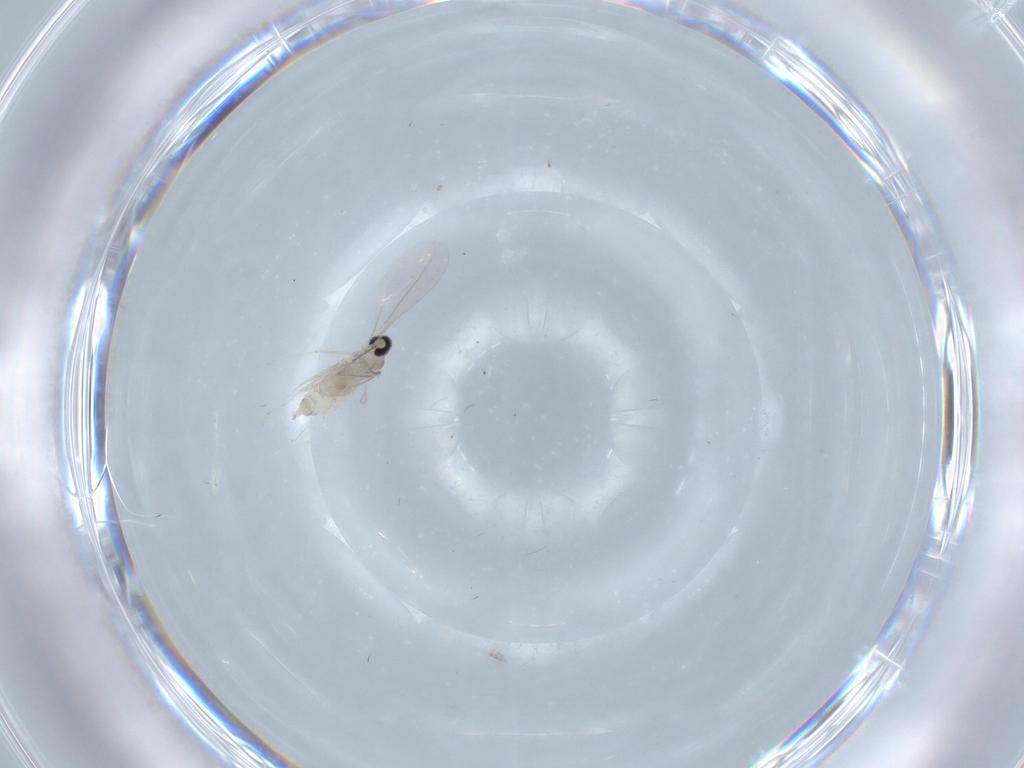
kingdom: Animalia
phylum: Arthropoda
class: Insecta
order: Diptera
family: Cecidomyiidae
